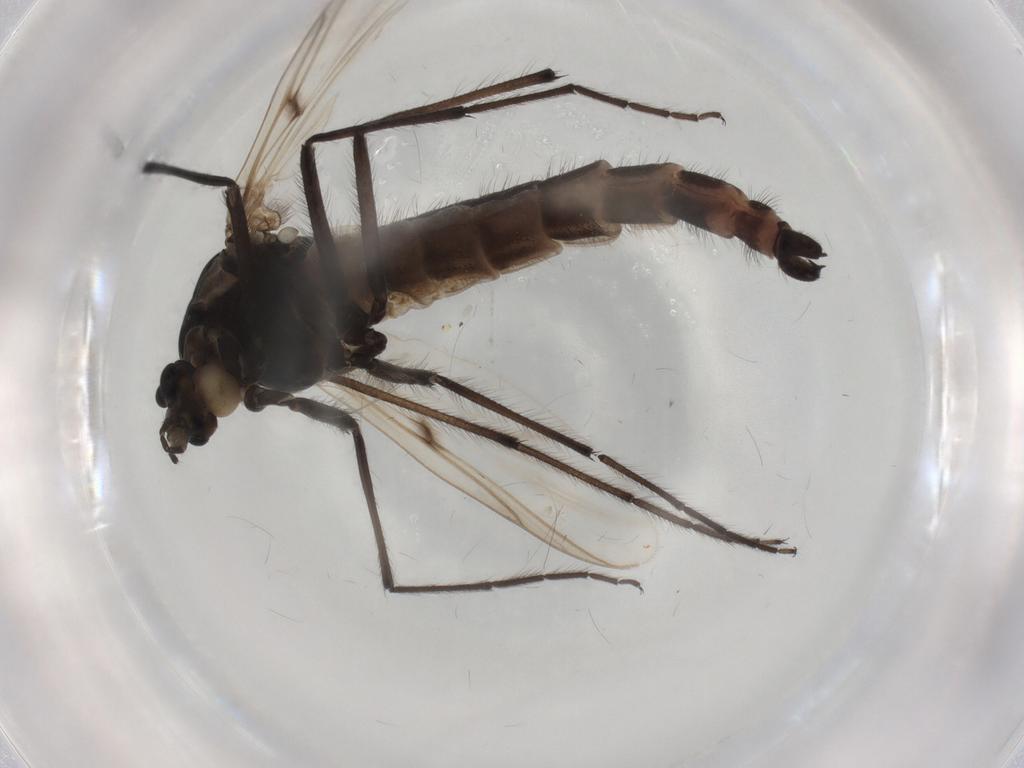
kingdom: Animalia
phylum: Arthropoda
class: Insecta
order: Diptera
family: Chironomidae
